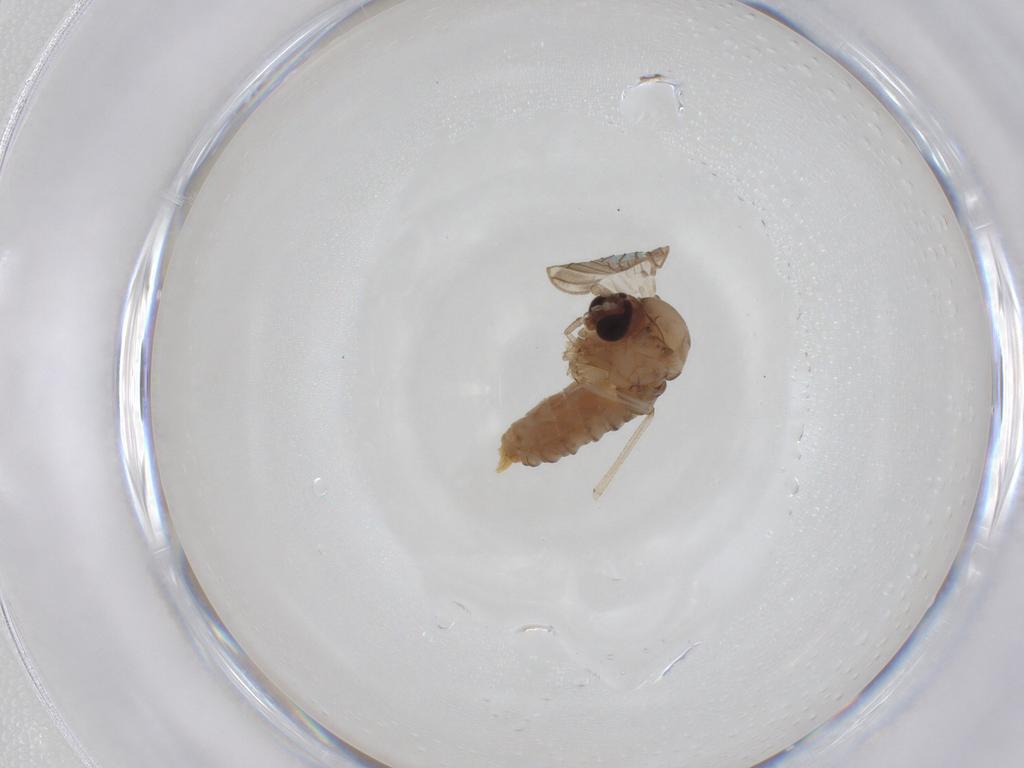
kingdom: Animalia
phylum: Arthropoda
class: Insecta
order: Diptera
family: Psychodidae
